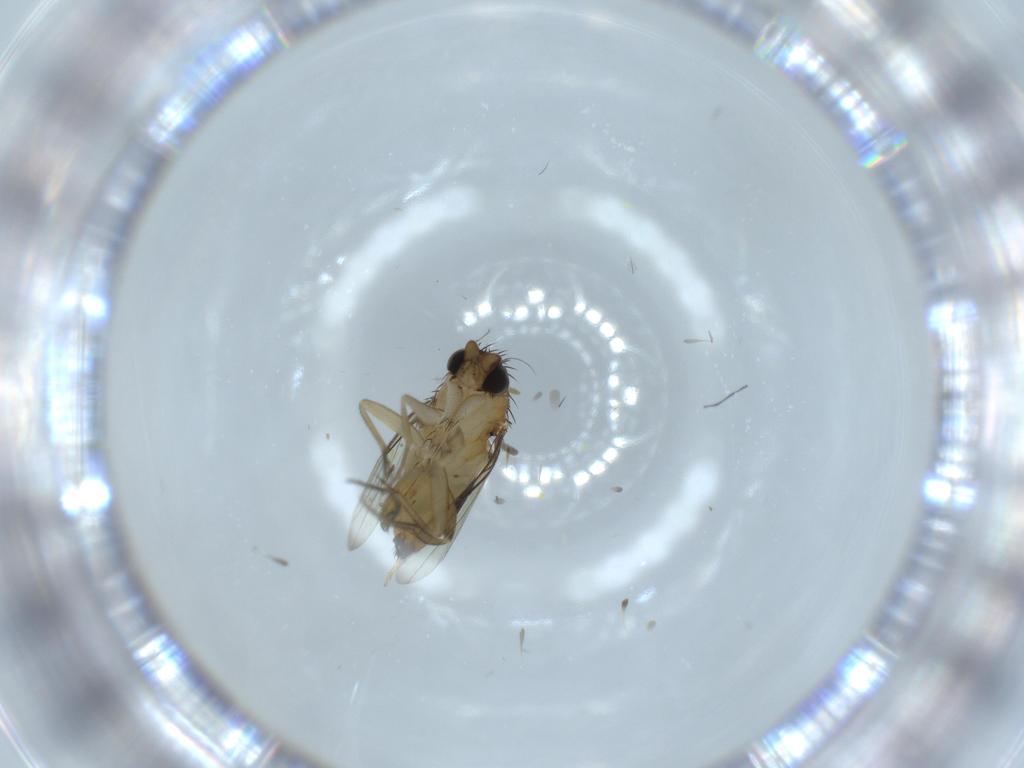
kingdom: Animalia
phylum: Arthropoda
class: Insecta
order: Diptera
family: Phoridae
